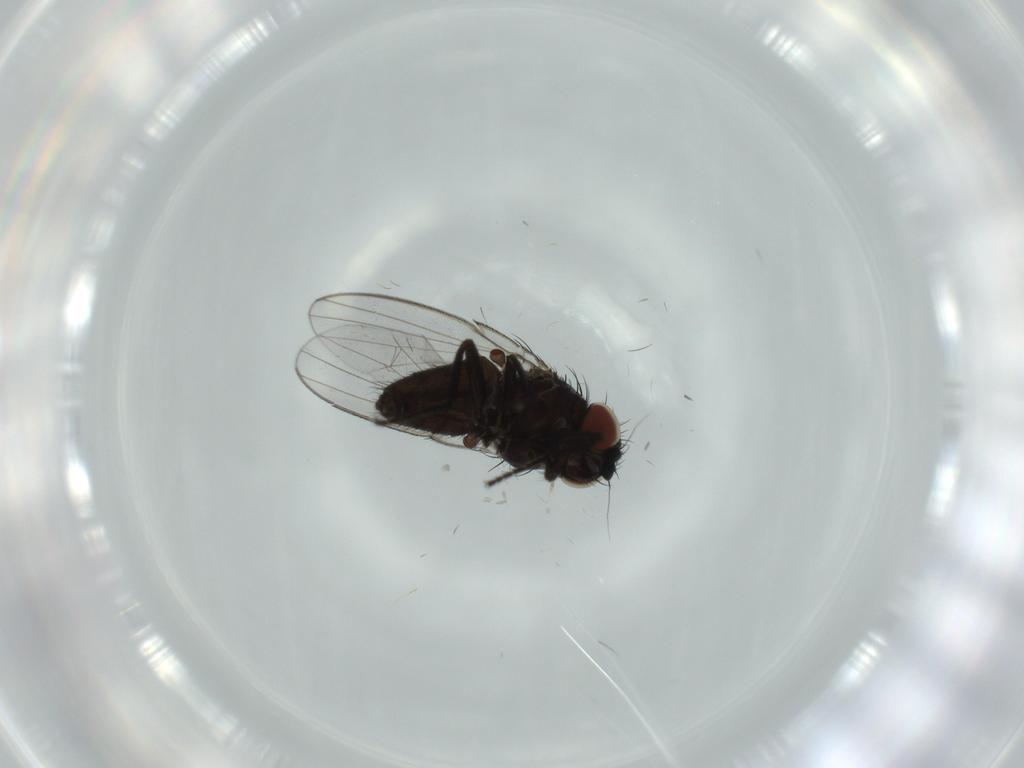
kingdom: Animalia
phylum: Arthropoda
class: Insecta
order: Diptera
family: Milichiidae
